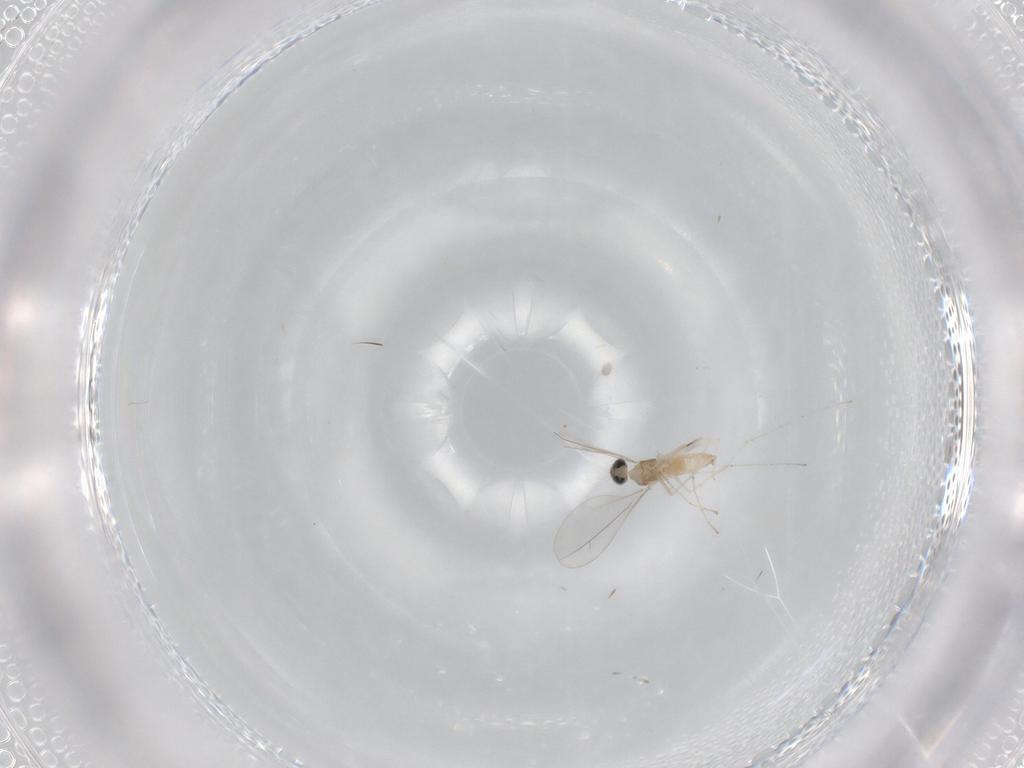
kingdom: Animalia
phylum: Arthropoda
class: Insecta
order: Diptera
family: Cecidomyiidae
